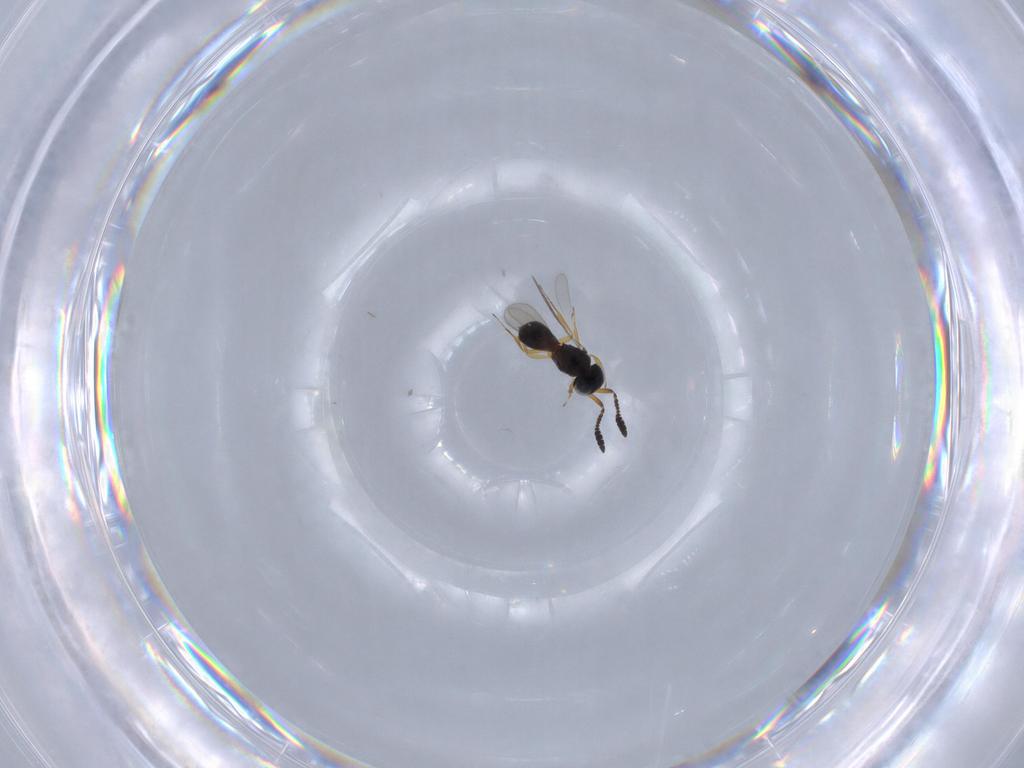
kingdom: Animalia
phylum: Arthropoda
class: Insecta
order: Hymenoptera
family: Scelionidae
